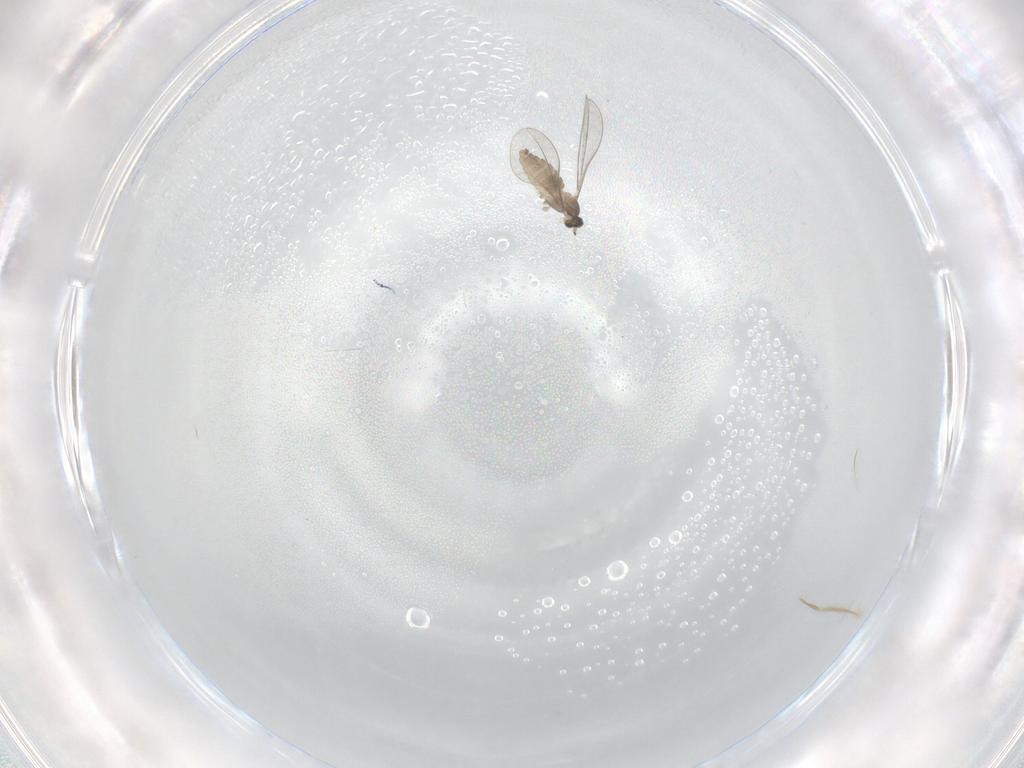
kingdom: Animalia
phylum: Arthropoda
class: Insecta
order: Diptera
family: Cecidomyiidae
